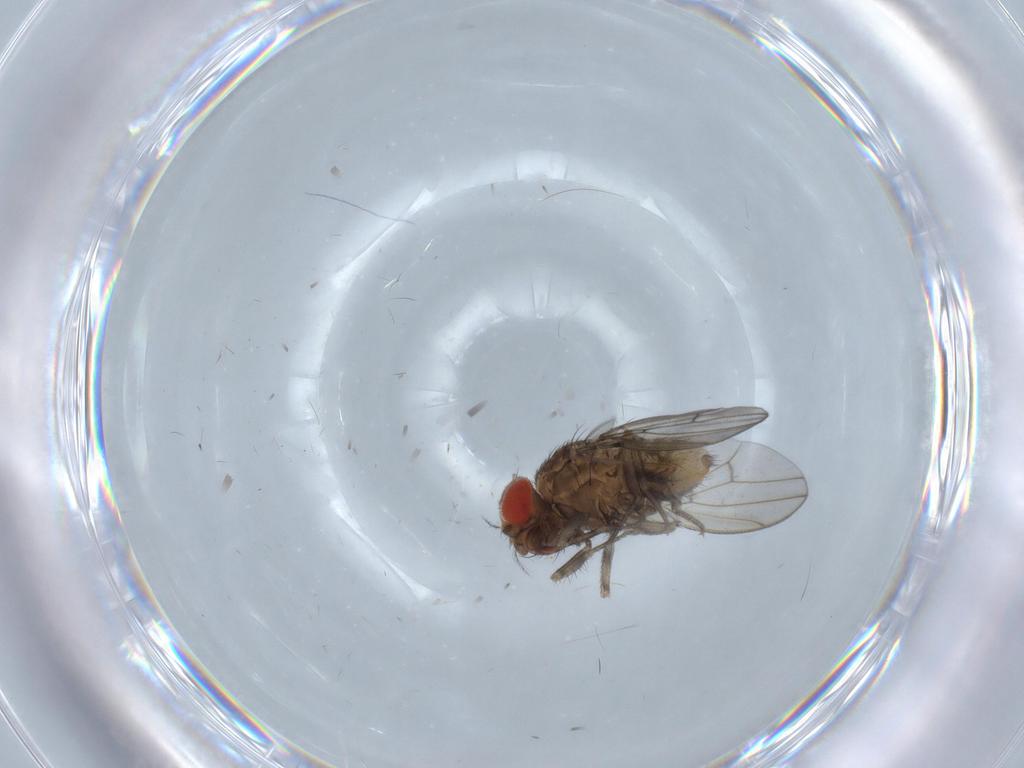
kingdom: Animalia
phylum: Arthropoda
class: Insecta
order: Diptera
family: Drosophilidae
